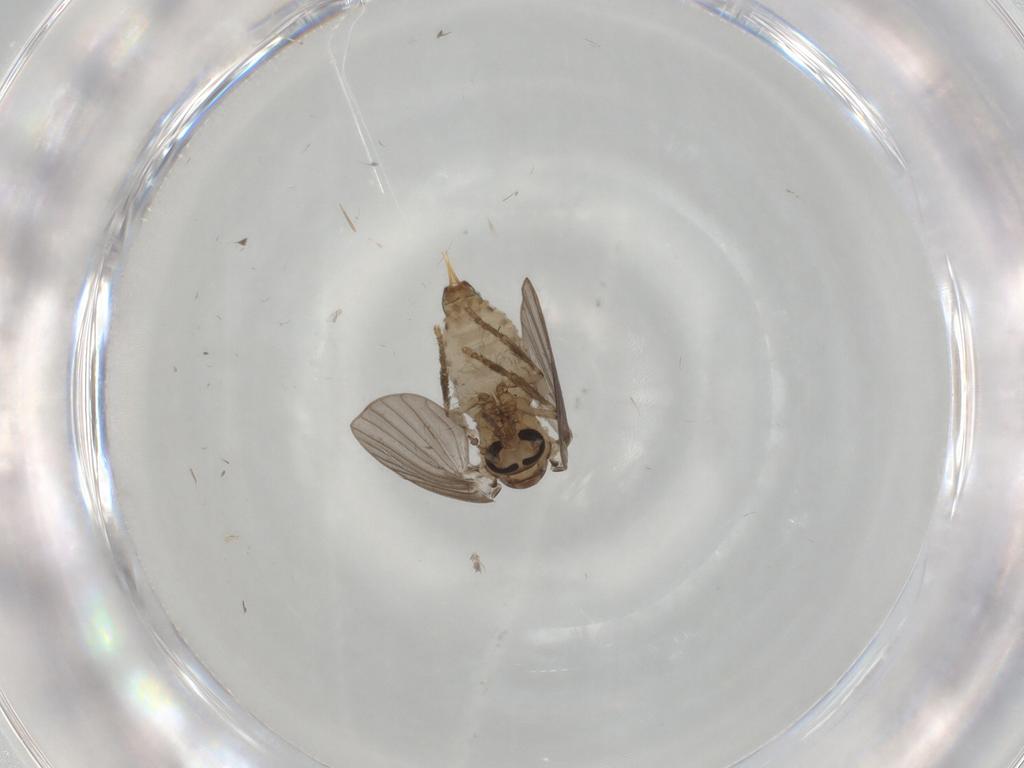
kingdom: Animalia
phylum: Arthropoda
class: Insecta
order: Diptera
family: Psychodidae
